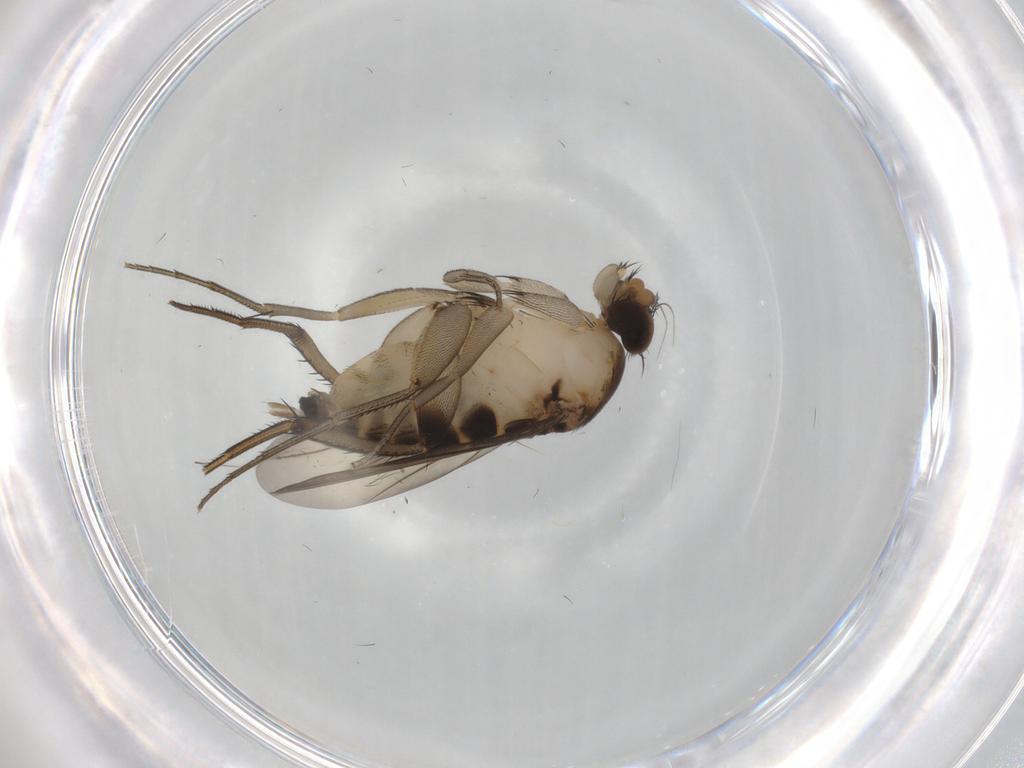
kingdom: Animalia
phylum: Arthropoda
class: Insecta
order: Diptera
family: Phoridae
